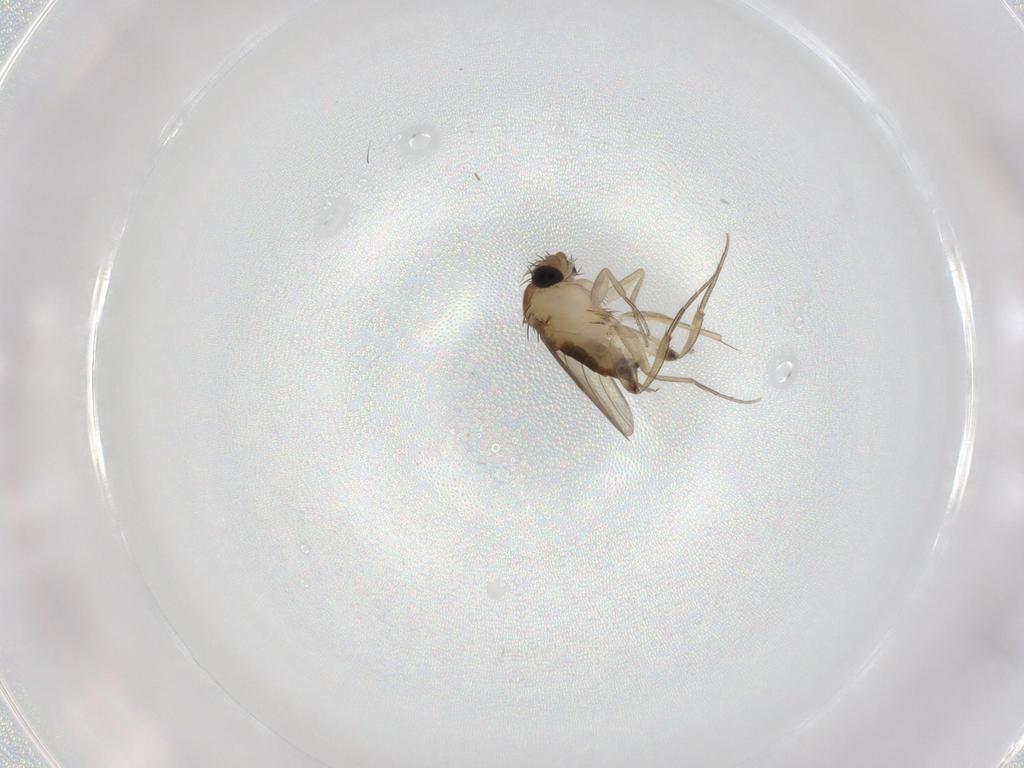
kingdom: Animalia
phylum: Arthropoda
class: Insecta
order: Diptera
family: Phoridae
